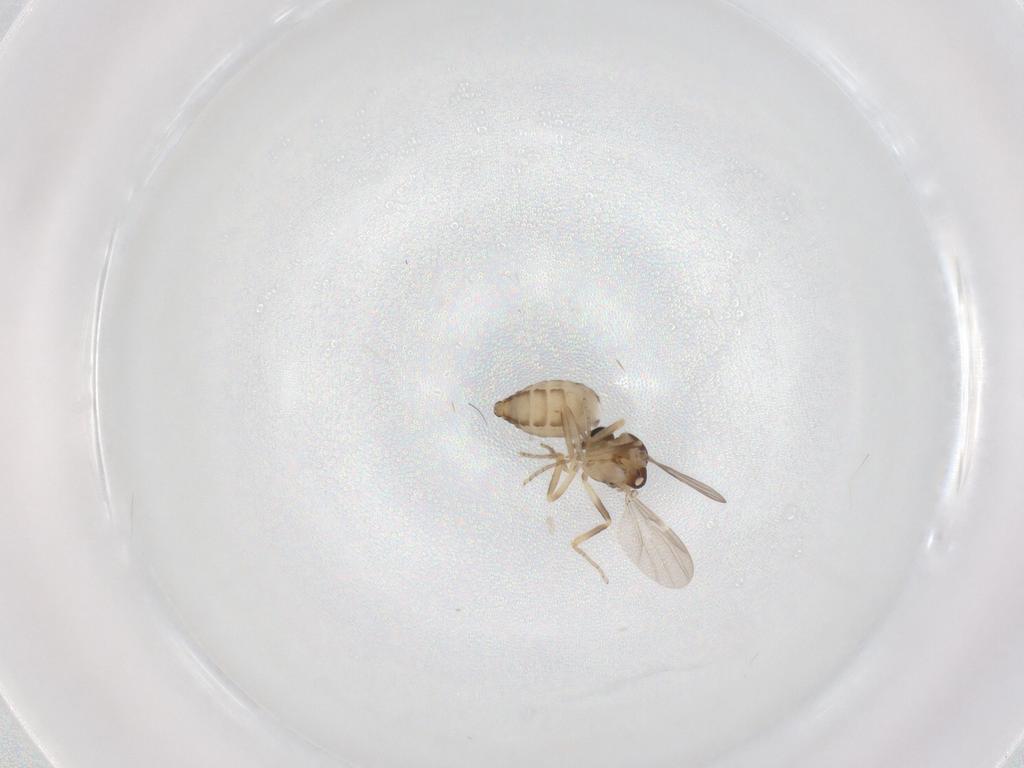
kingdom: Animalia
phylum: Arthropoda
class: Insecta
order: Diptera
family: Ceratopogonidae
